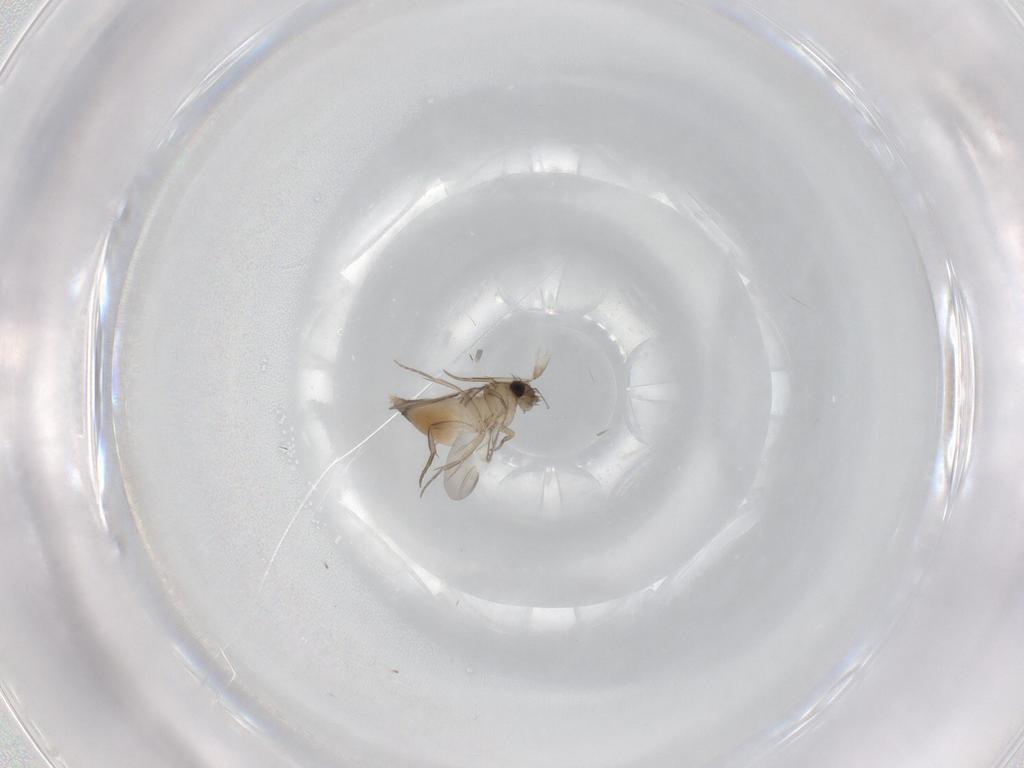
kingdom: Animalia
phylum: Arthropoda
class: Insecta
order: Diptera
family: Phoridae
